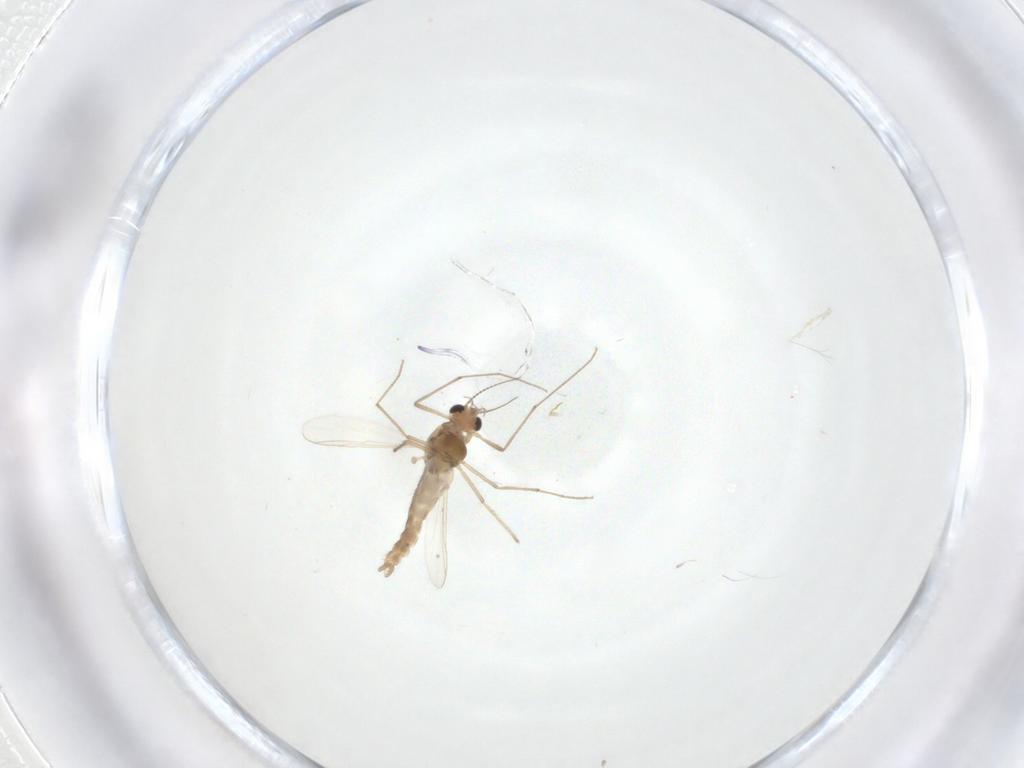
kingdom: Animalia
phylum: Arthropoda
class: Insecta
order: Diptera
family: Chironomidae
